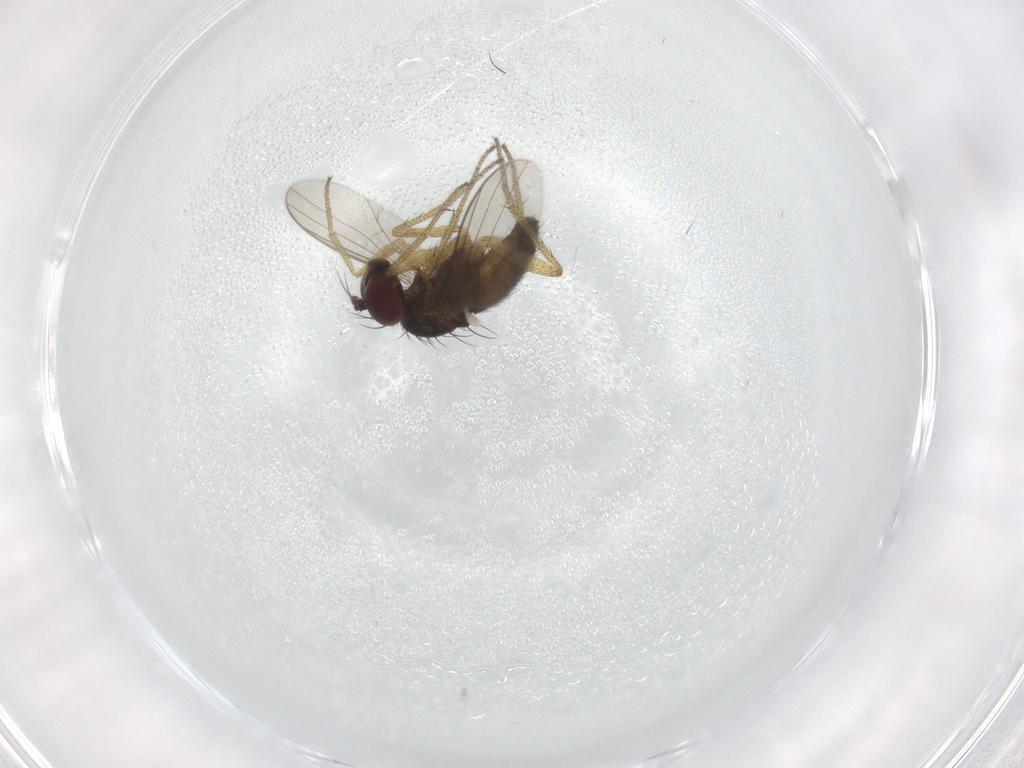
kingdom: Animalia
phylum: Arthropoda
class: Insecta
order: Diptera
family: Dolichopodidae
